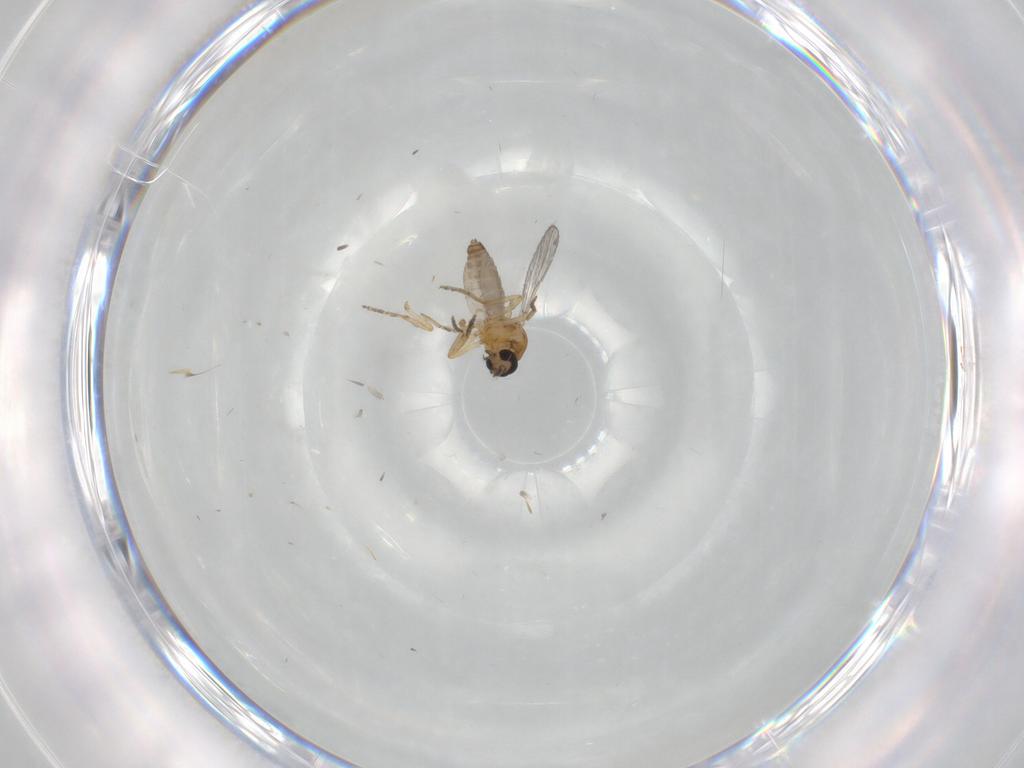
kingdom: Animalia
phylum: Arthropoda
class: Insecta
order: Diptera
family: Ceratopogonidae
